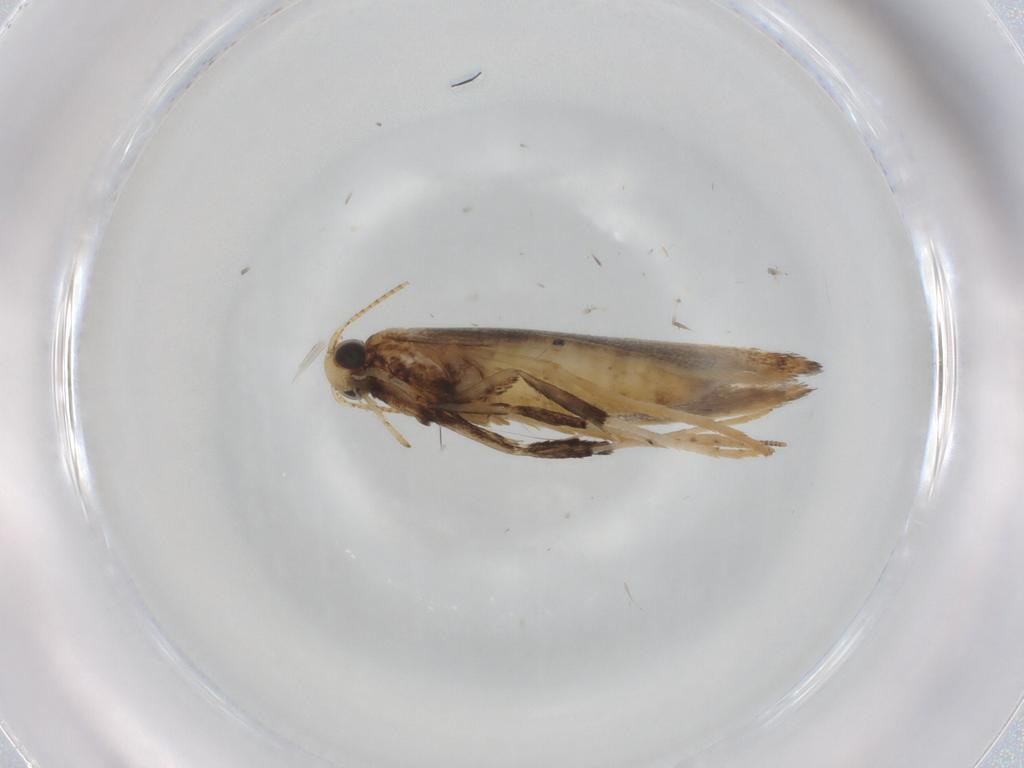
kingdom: Animalia
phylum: Arthropoda
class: Insecta
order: Lepidoptera
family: Gracillariidae
